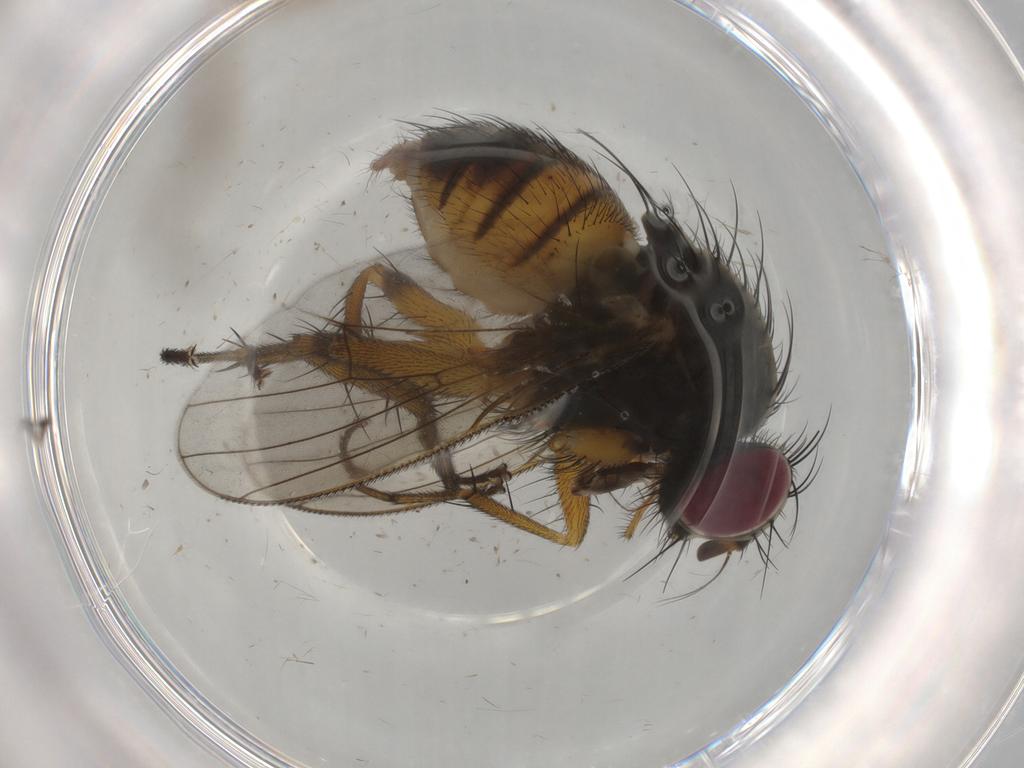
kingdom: Animalia
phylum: Arthropoda
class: Insecta
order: Diptera
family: Muscidae
